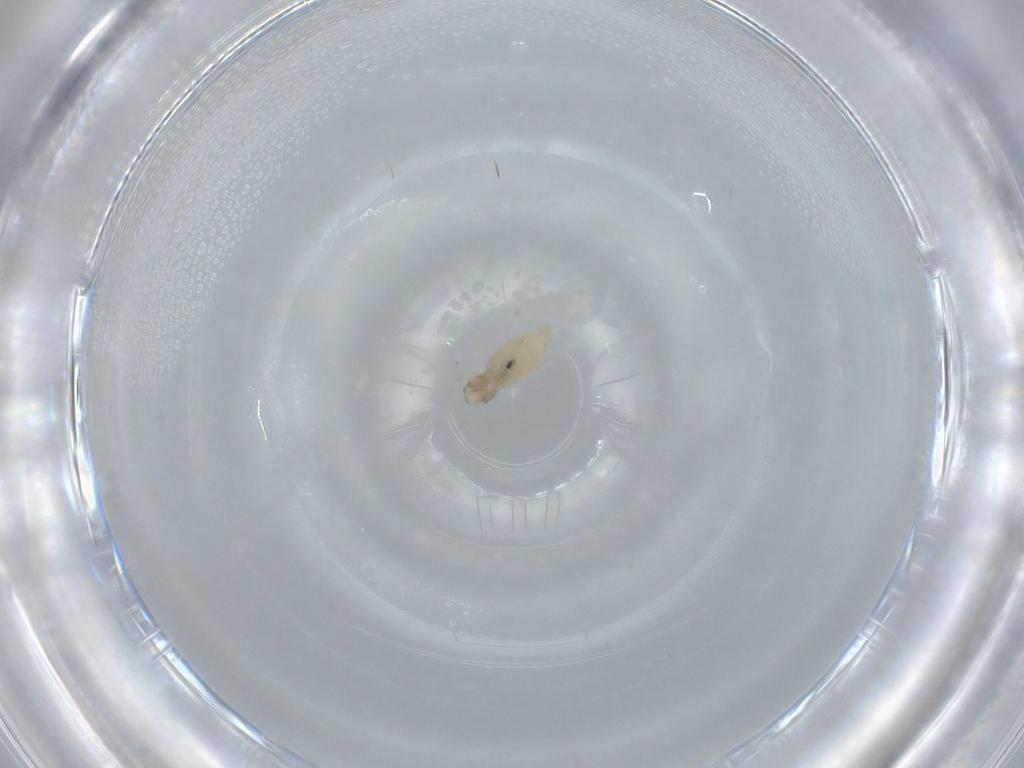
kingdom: Animalia
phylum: Arthropoda
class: Insecta
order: Diptera
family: Cecidomyiidae
